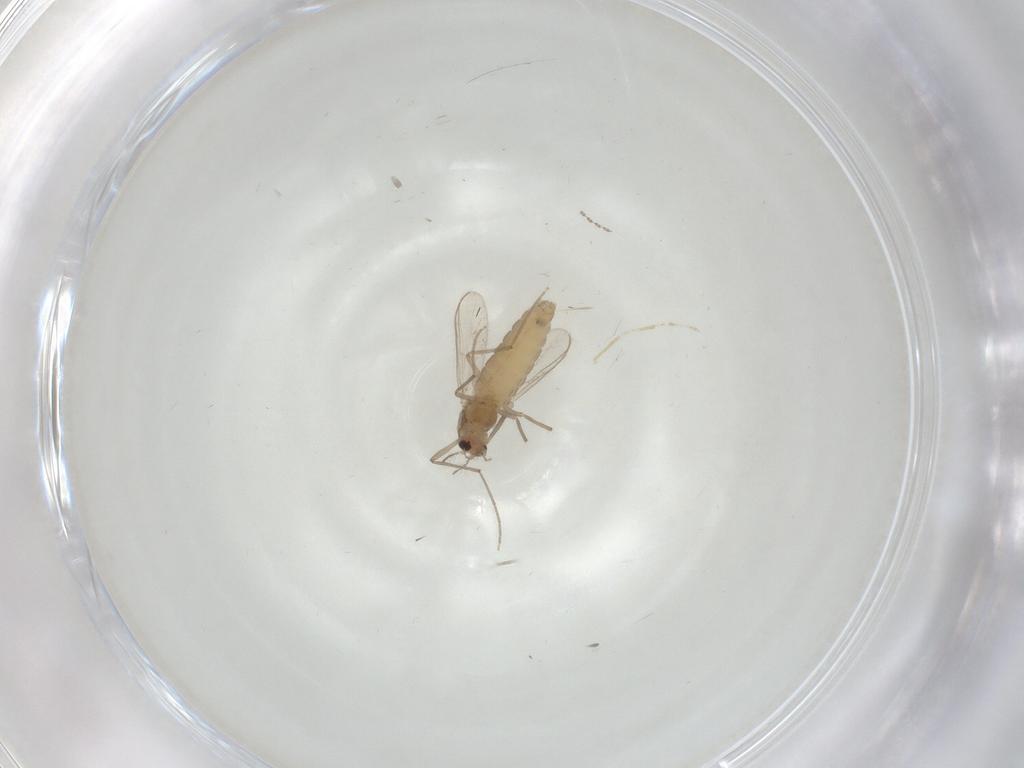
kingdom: Animalia
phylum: Arthropoda
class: Insecta
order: Diptera
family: Chironomidae
